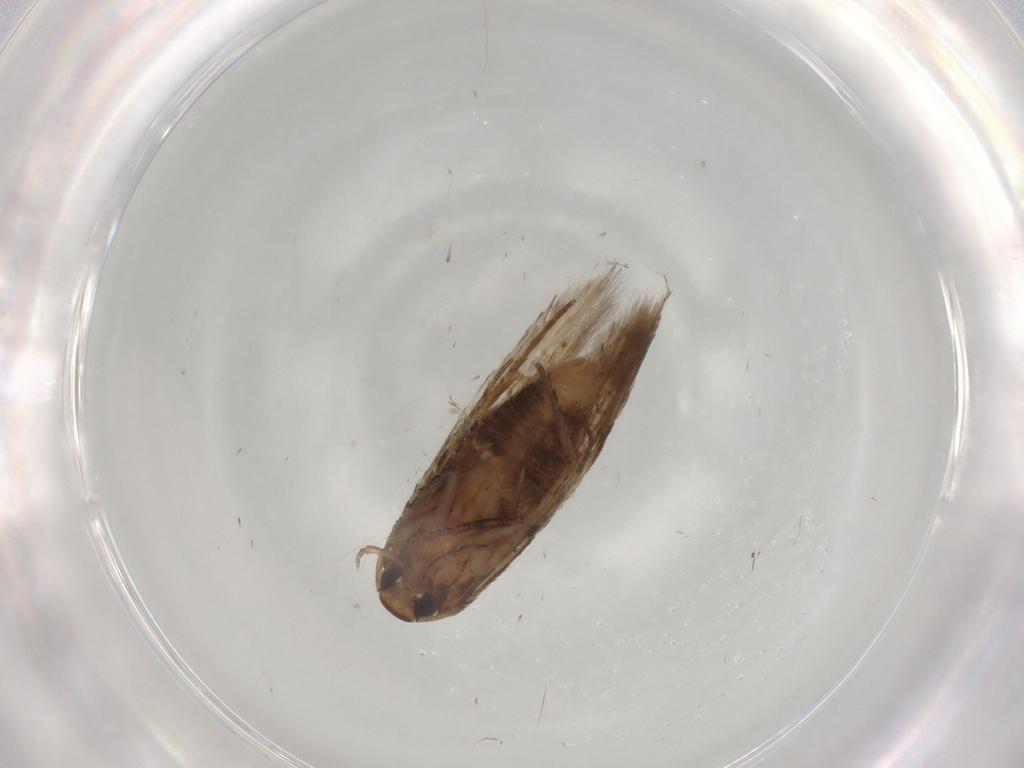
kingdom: Animalia
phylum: Arthropoda
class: Insecta
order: Lepidoptera
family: Cosmopterigidae
